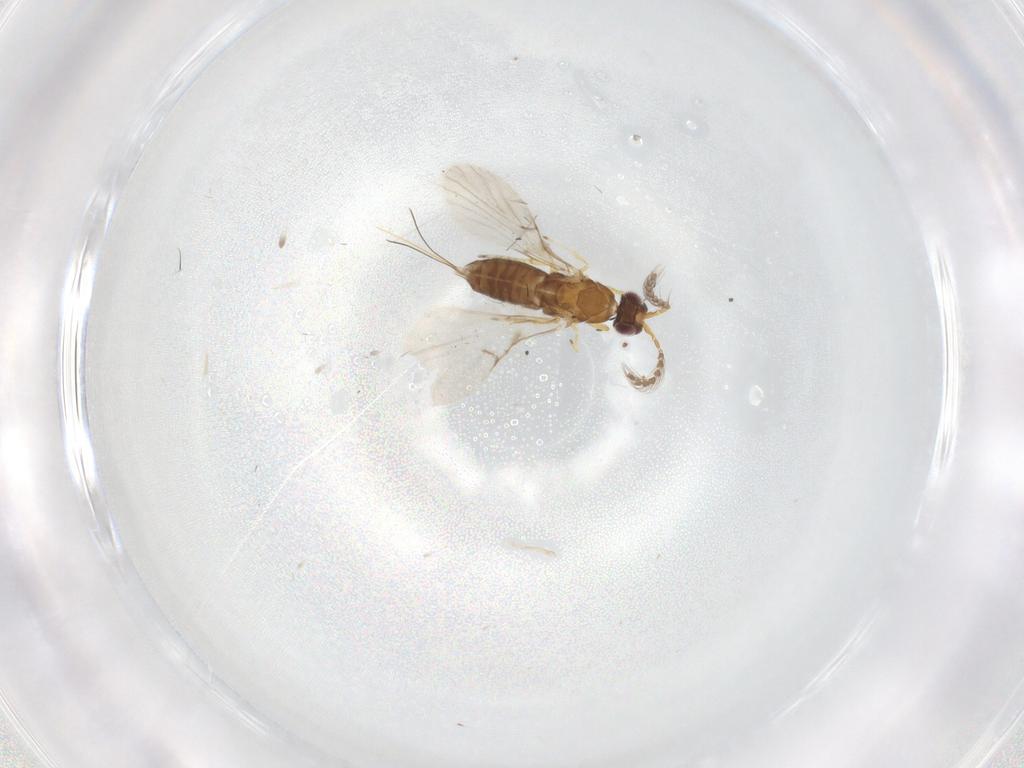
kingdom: Animalia
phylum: Arthropoda
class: Insecta
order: Hymenoptera
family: Agaonidae
